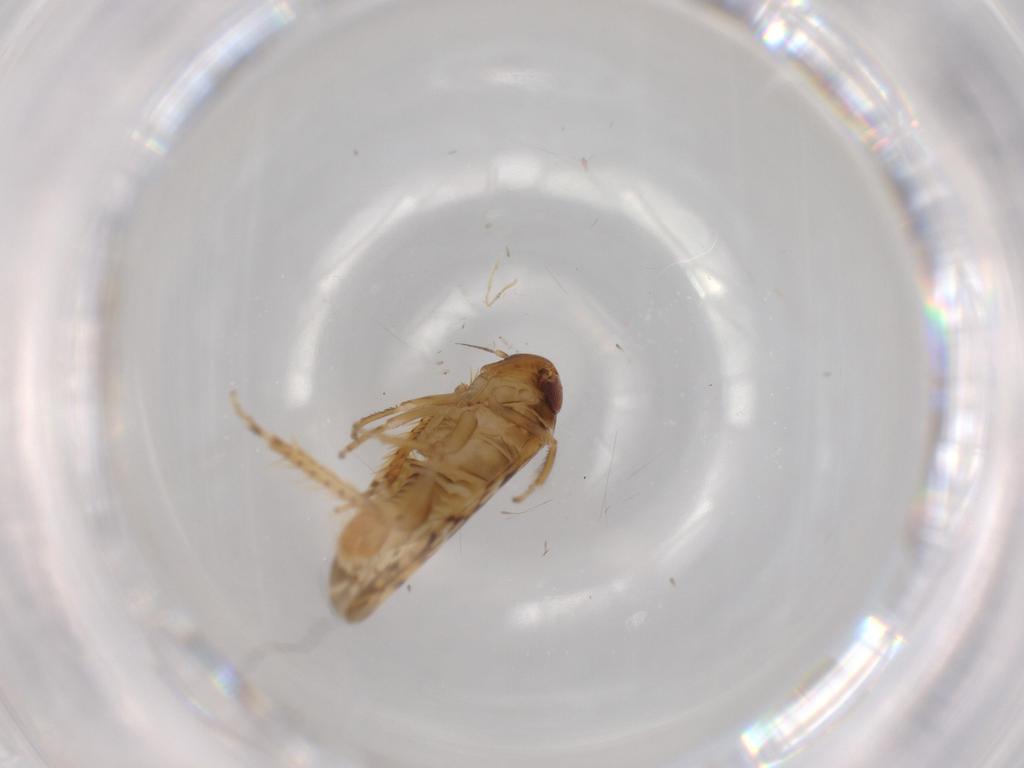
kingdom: Animalia
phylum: Arthropoda
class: Insecta
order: Hemiptera
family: Cicadellidae
